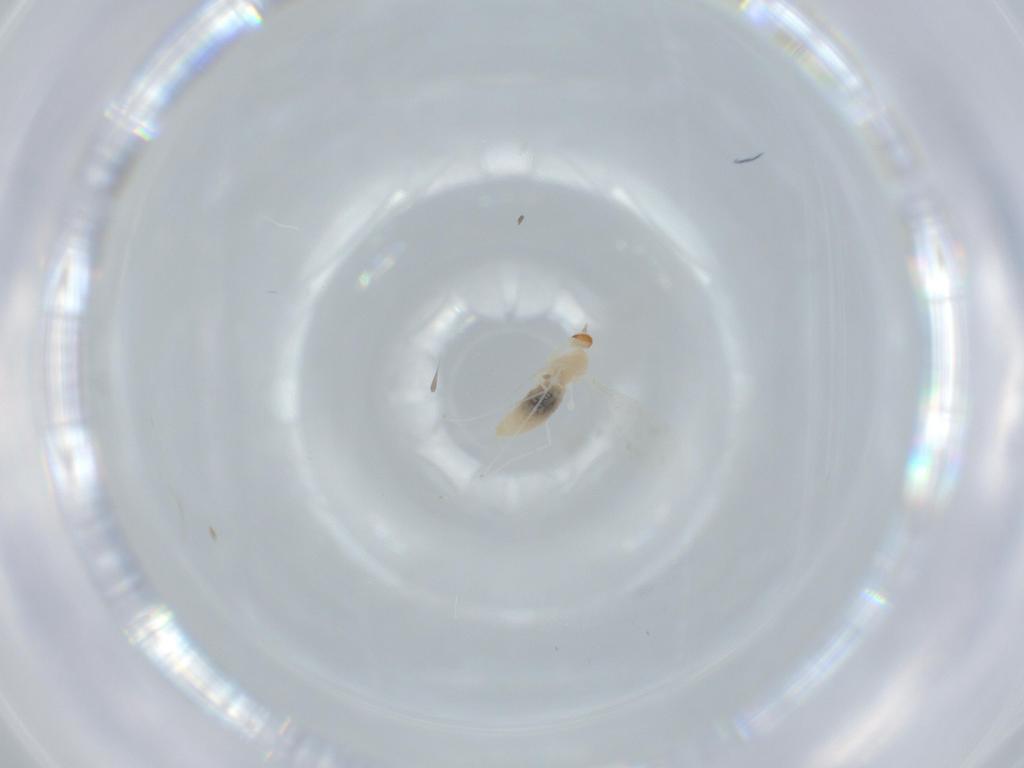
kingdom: Animalia
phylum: Arthropoda
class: Insecta
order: Diptera
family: Cecidomyiidae
